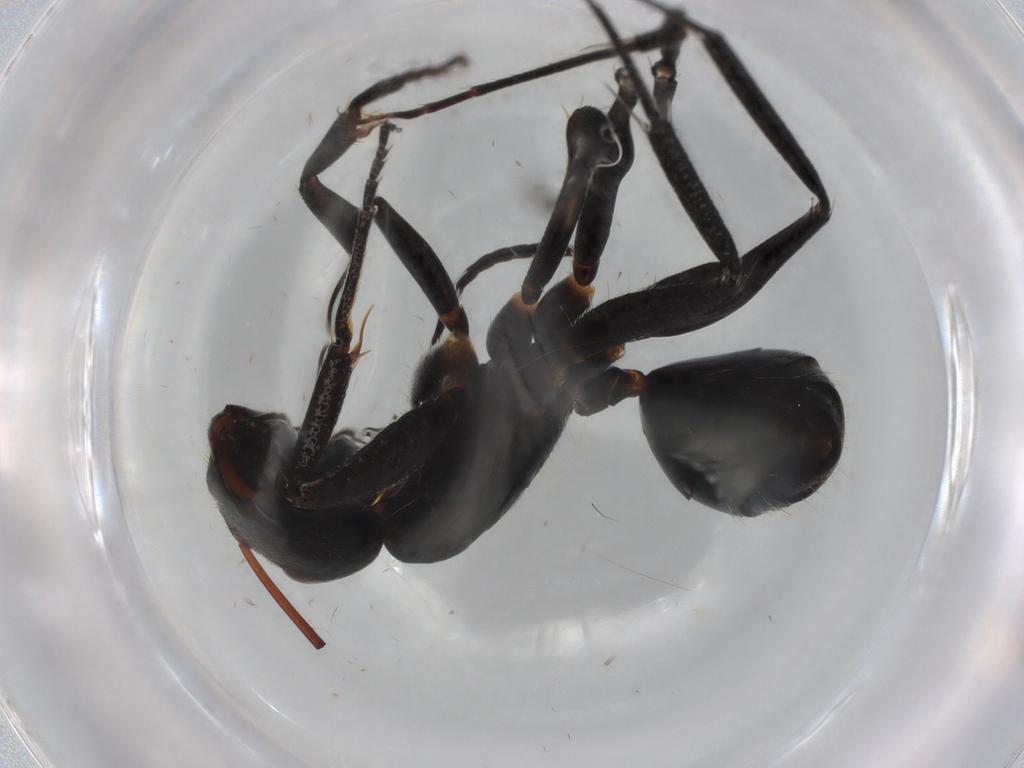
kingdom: Animalia
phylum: Arthropoda
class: Insecta
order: Hymenoptera
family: Formicidae
